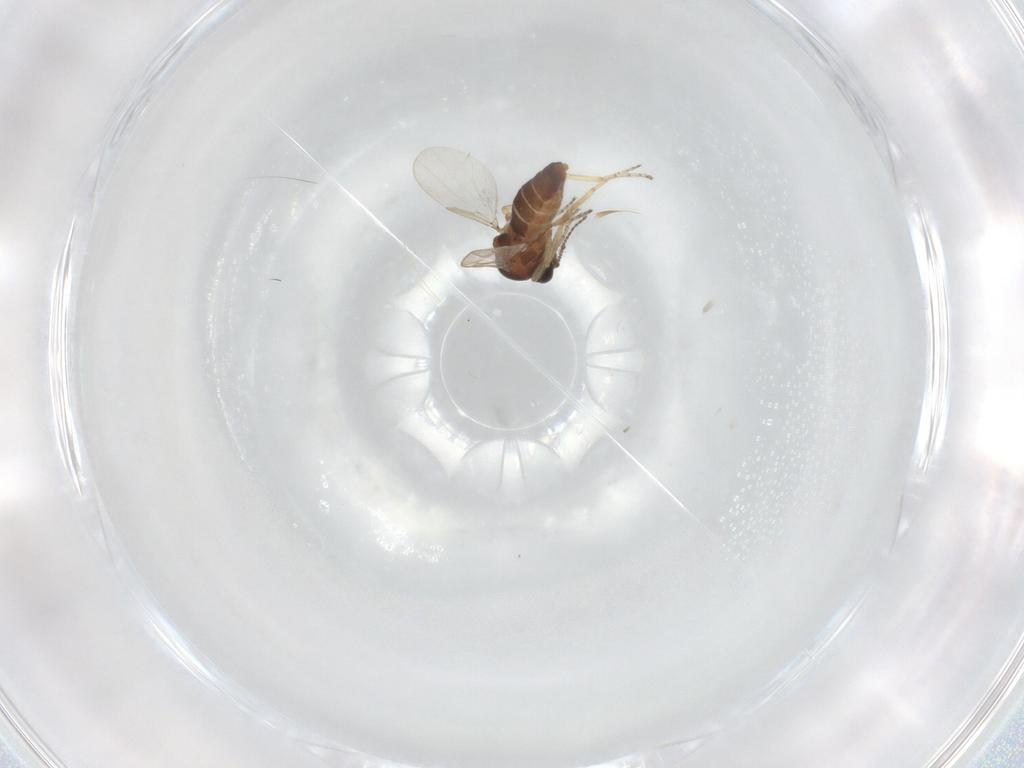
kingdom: Animalia
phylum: Arthropoda
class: Insecta
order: Diptera
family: Ceratopogonidae
